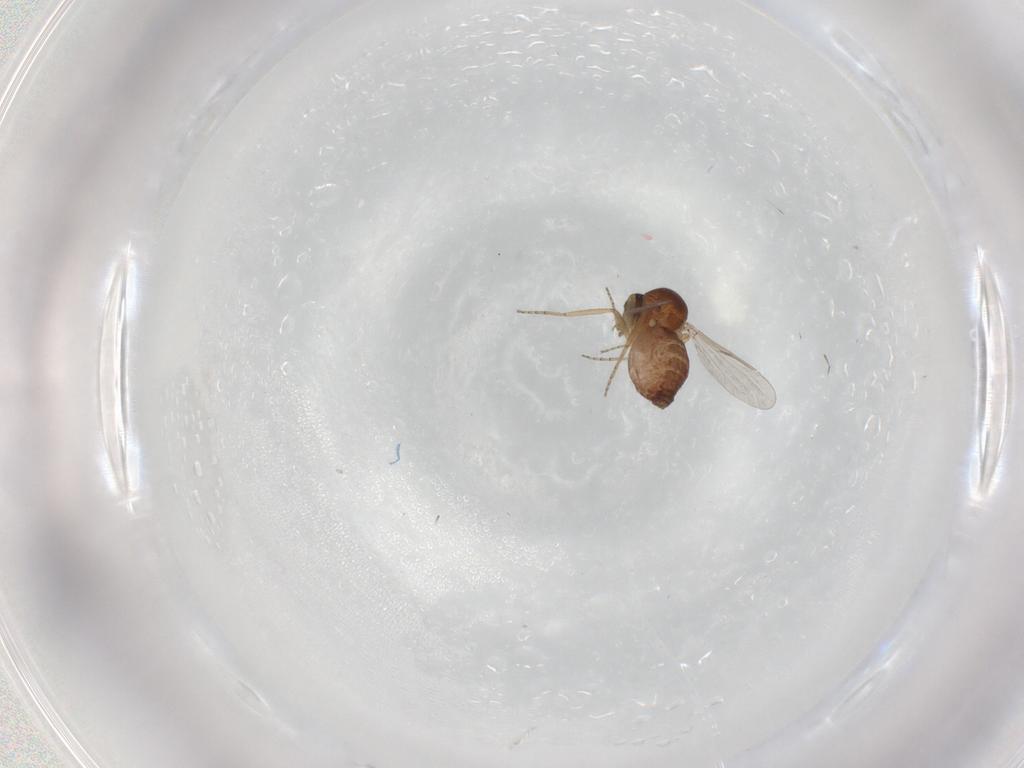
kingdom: Animalia
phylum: Arthropoda
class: Insecta
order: Diptera
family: Ceratopogonidae
